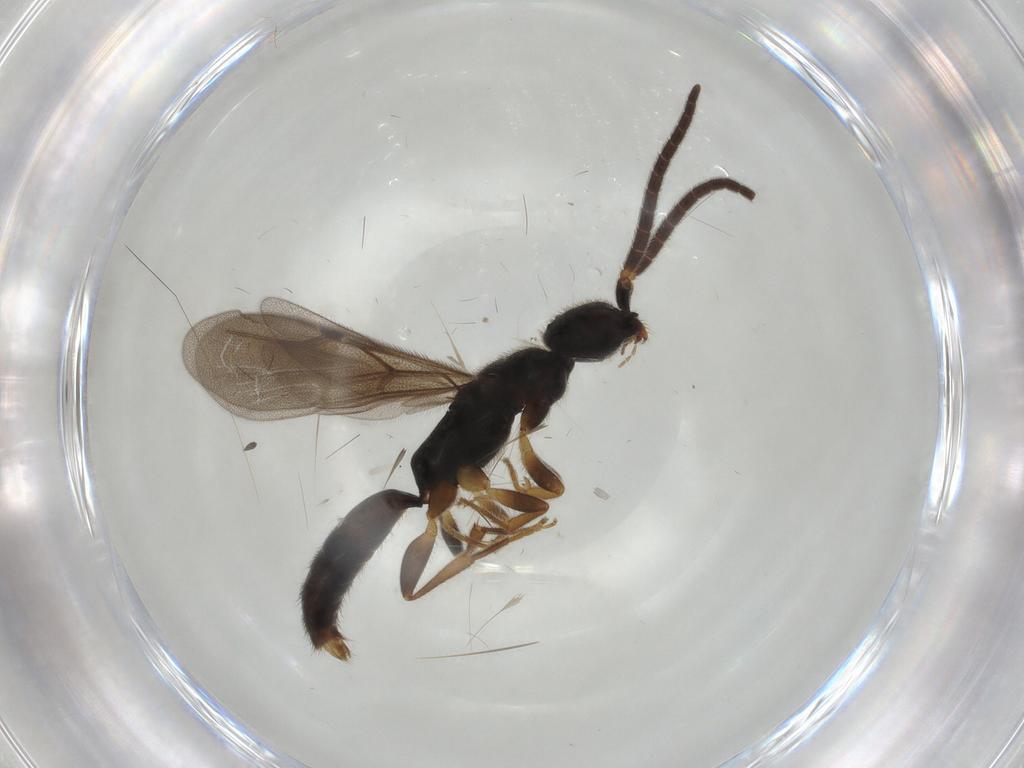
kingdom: Animalia
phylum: Arthropoda
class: Insecta
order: Hymenoptera
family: Bethylidae
